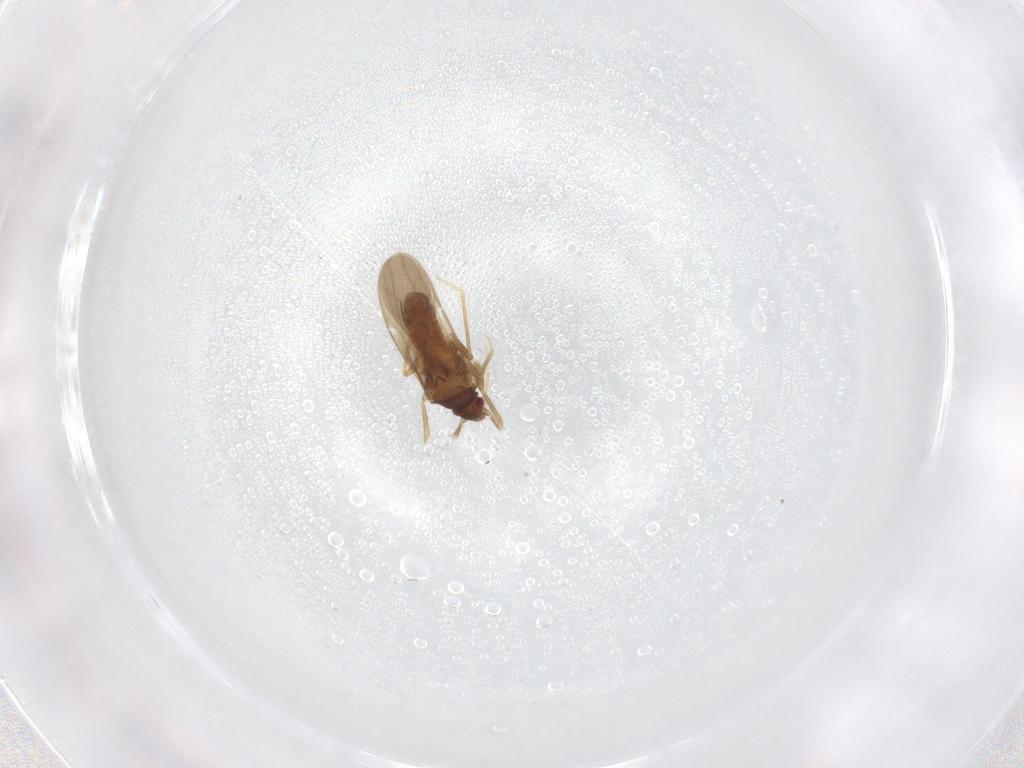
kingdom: Animalia
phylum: Arthropoda
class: Insecta
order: Hemiptera
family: Ceratocombidae
